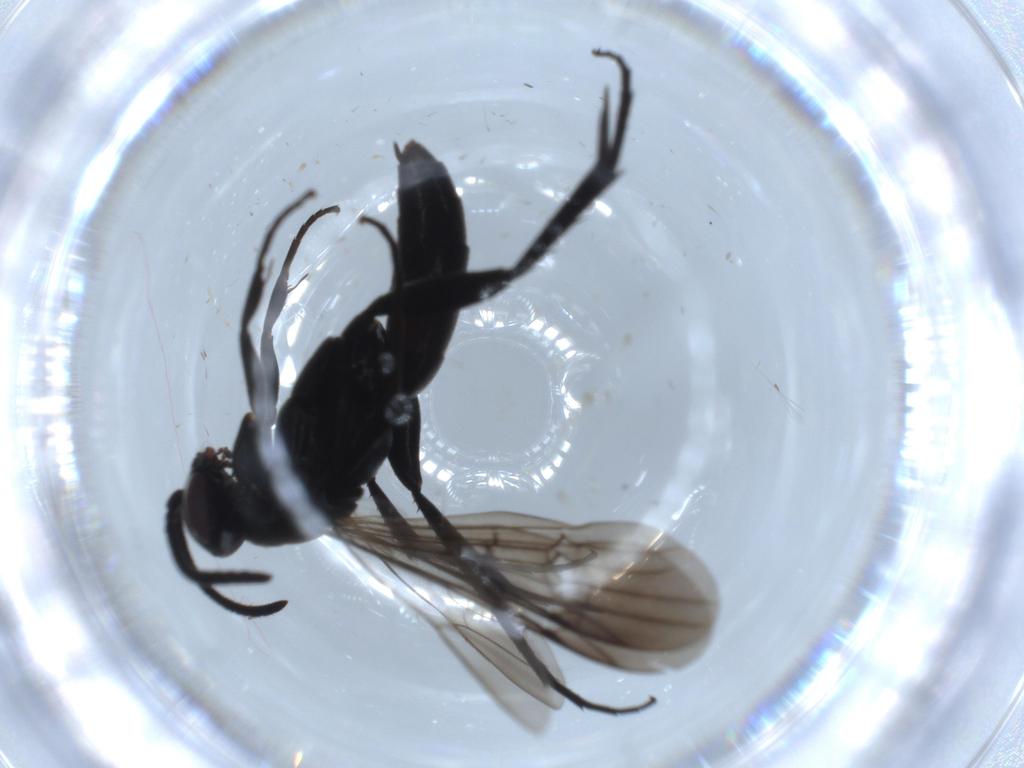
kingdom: Animalia
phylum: Arthropoda
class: Insecta
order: Hymenoptera
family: Pompilidae
